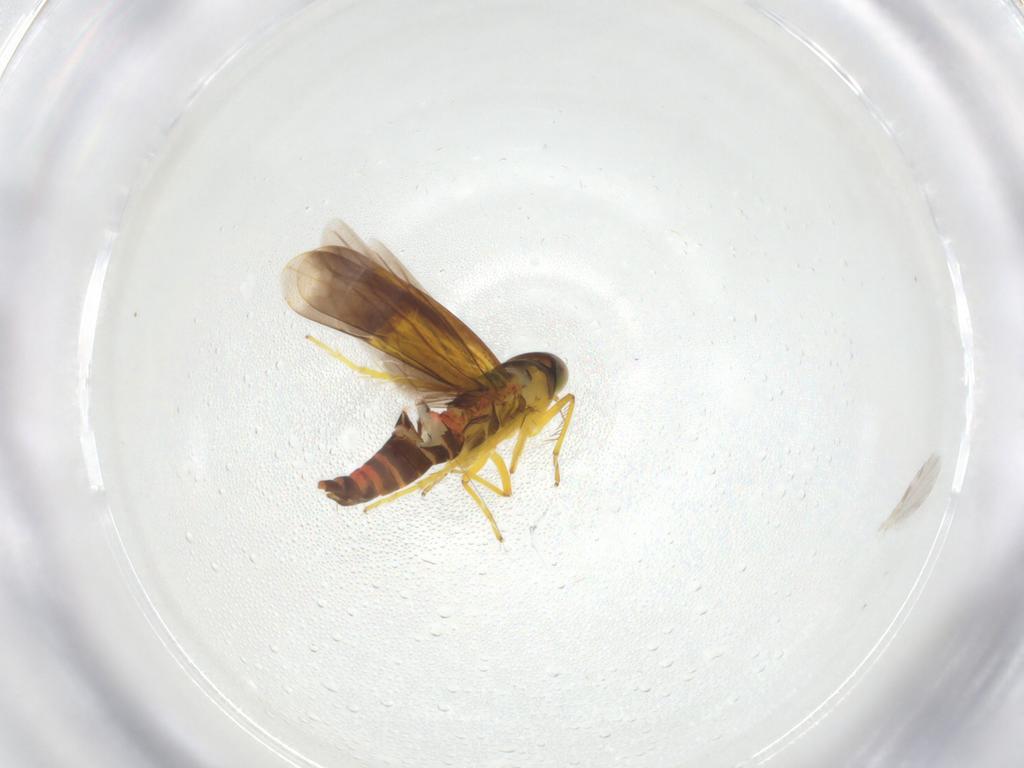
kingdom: Animalia
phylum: Arthropoda
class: Insecta
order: Hemiptera
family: Cicadellidae
